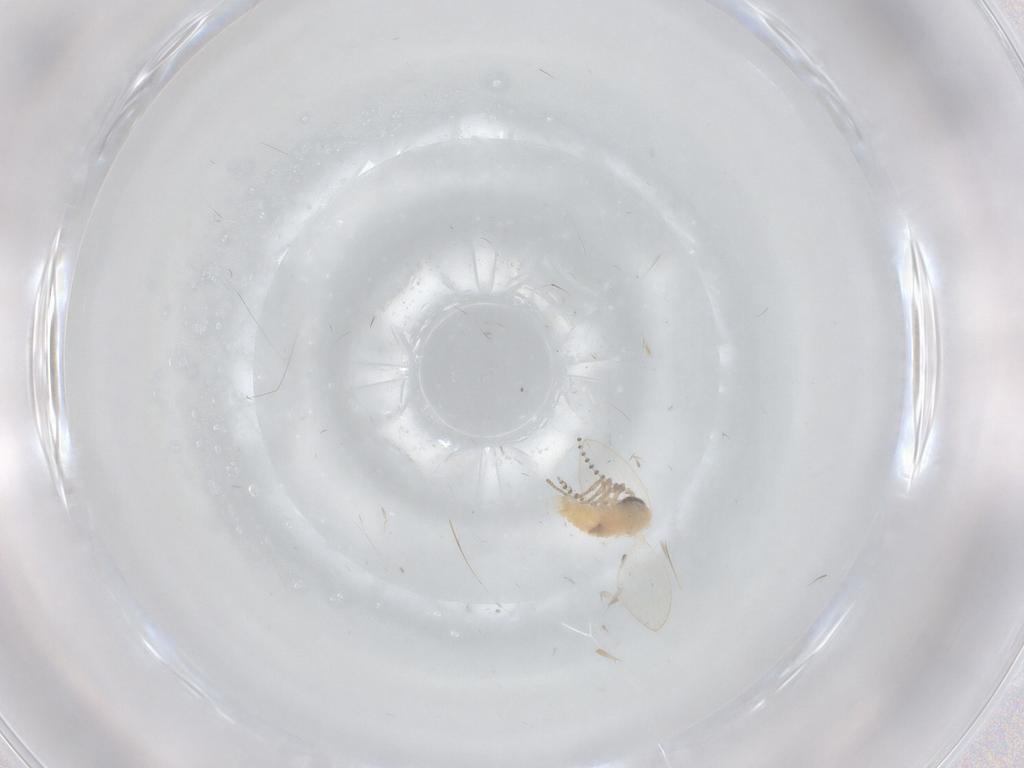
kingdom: Animalia
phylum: Arthropoda
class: Insecta
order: Diptera
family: Psychodidae
